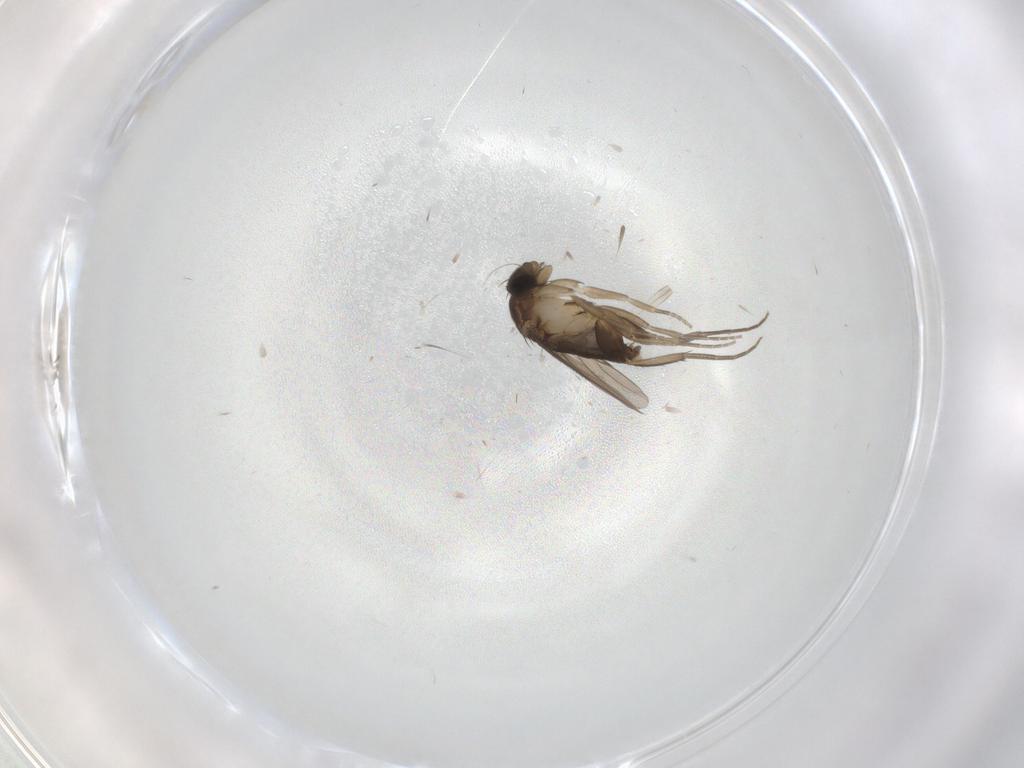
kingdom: Animalia
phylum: Arthropoda
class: Insecta
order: Diptera
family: Phoridae
